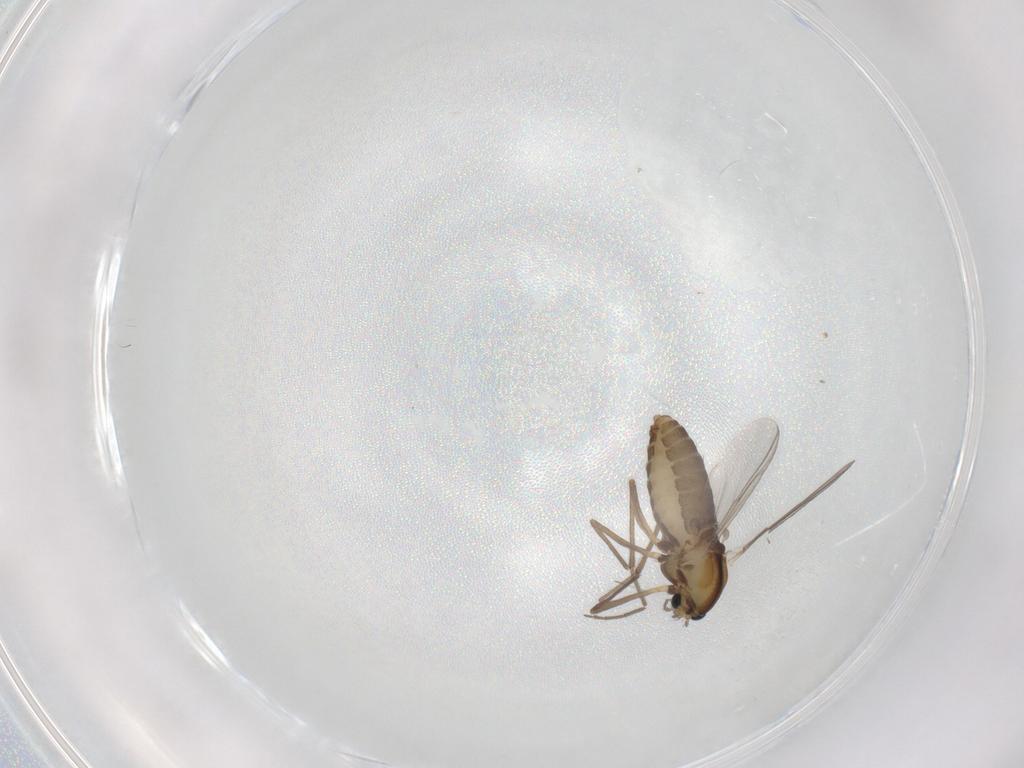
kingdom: Animalia
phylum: Arthropoda
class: Insecta
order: Diptera
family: Chironomidae
